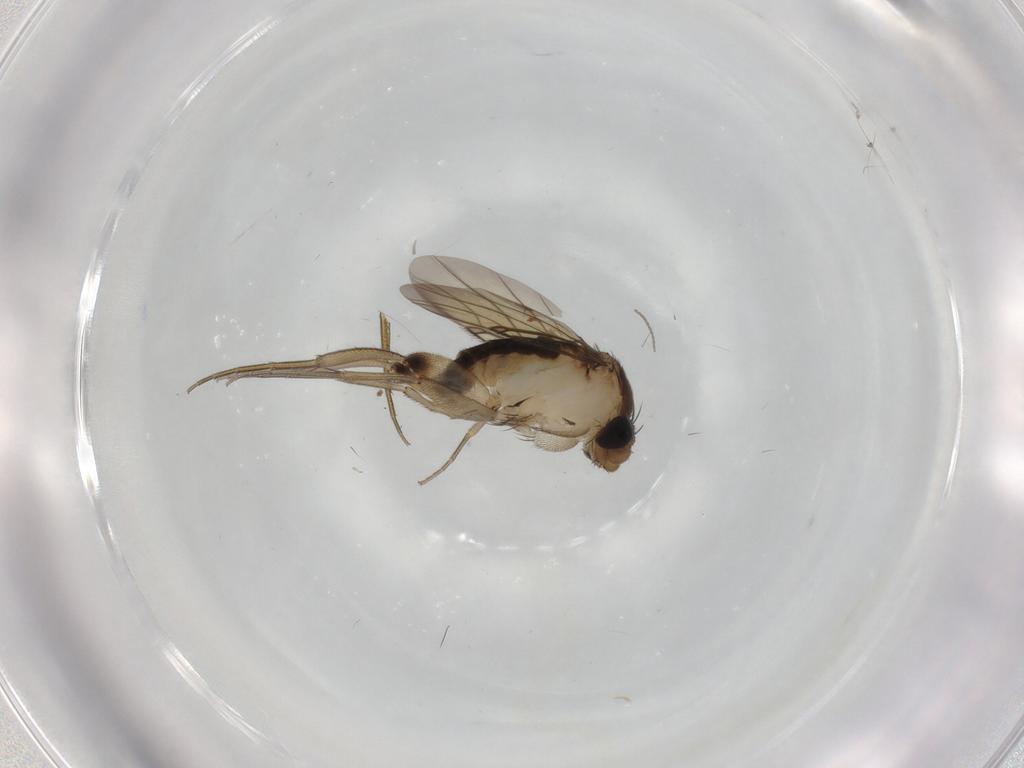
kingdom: Animalia
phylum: Arthropoda
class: Insecta
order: Diptera
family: Phoridae
